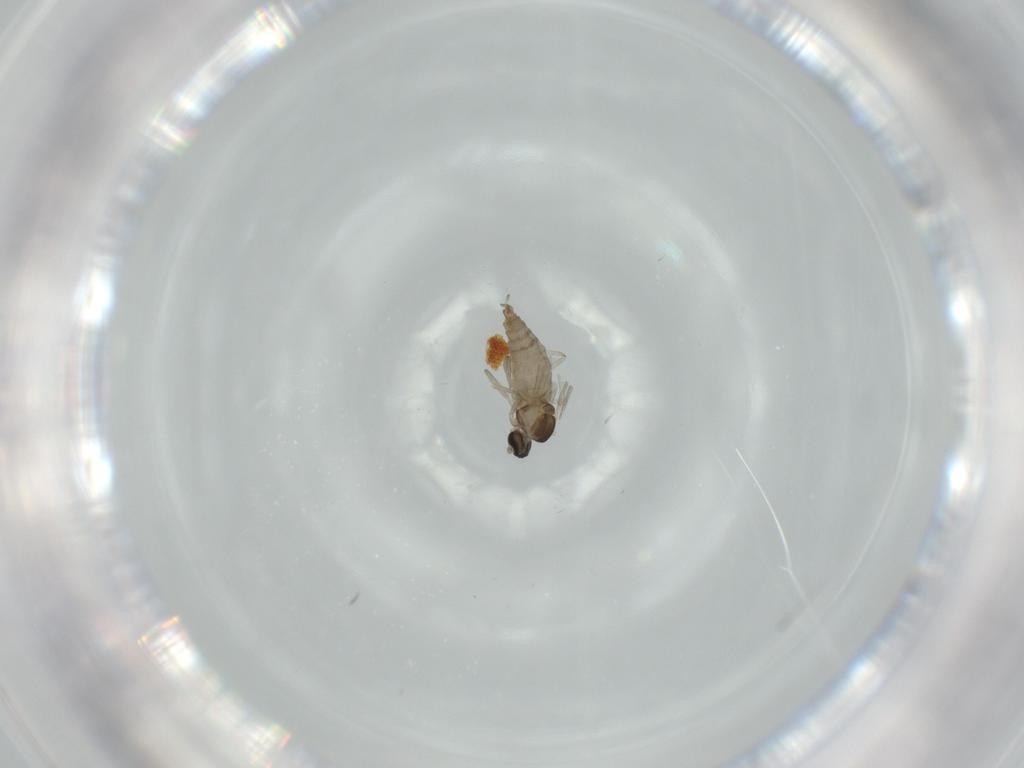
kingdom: Animalia
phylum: Arthropoda
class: Insecta
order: Diptera
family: Cecidomyiidae
